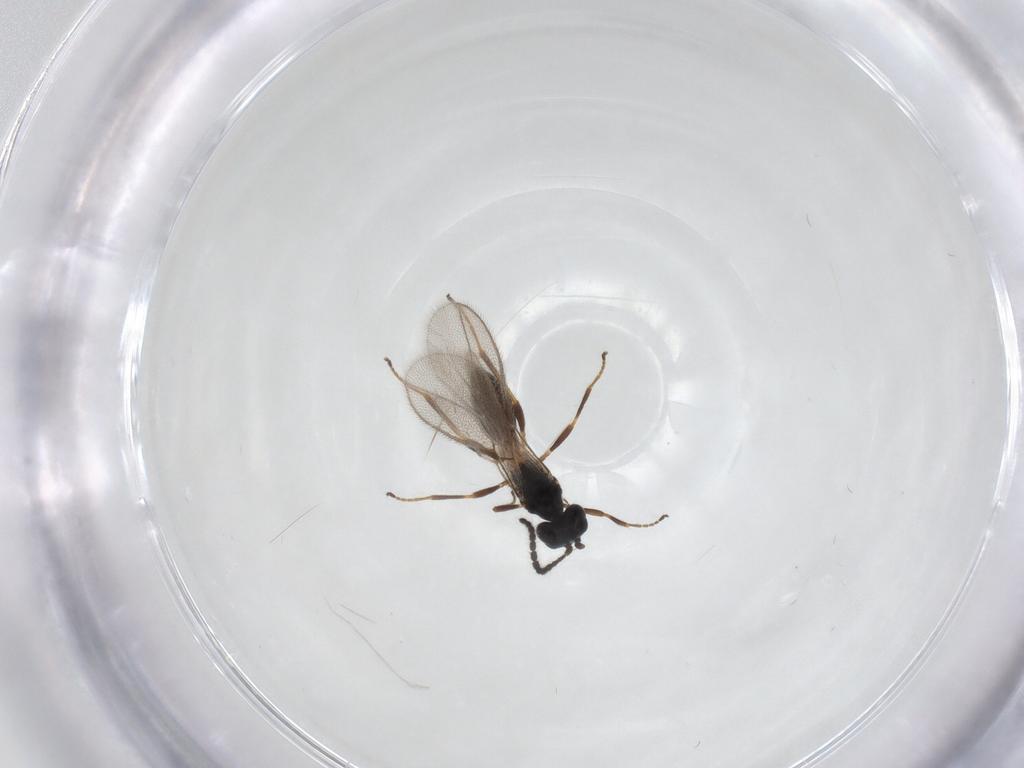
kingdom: Animalia
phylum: Arthropoda
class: Insecta
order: Hymenoptera
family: Braconidae
